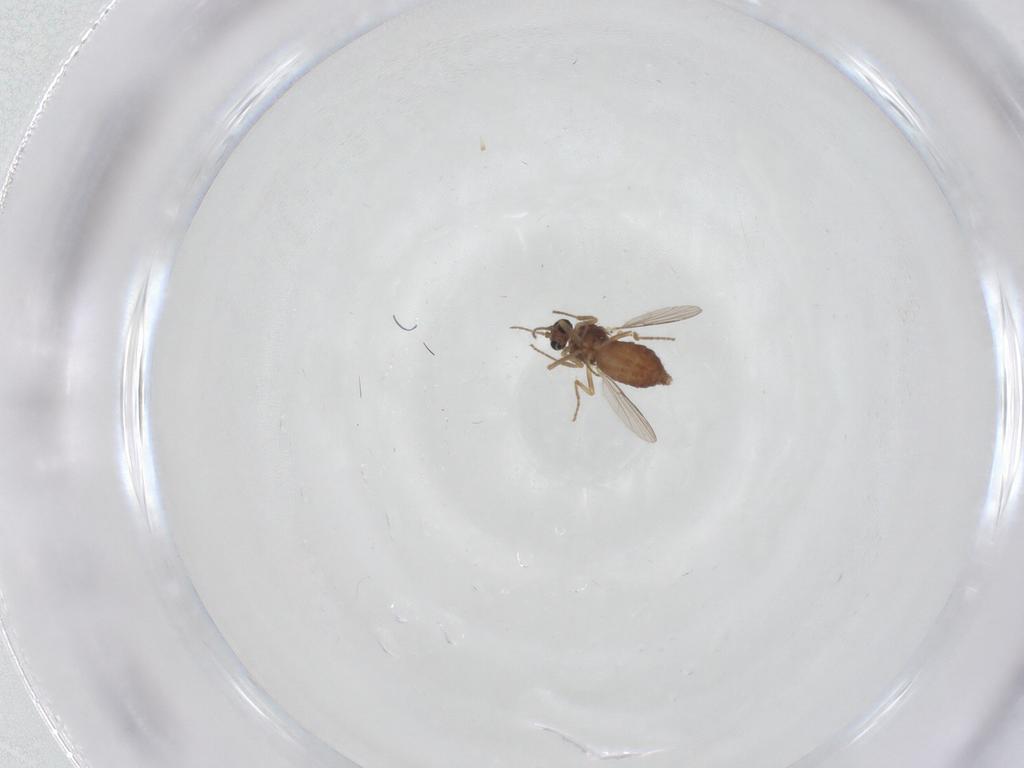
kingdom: Animalia
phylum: Arthropoda
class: Insecta
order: Diptera
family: Ceratopogonidae
